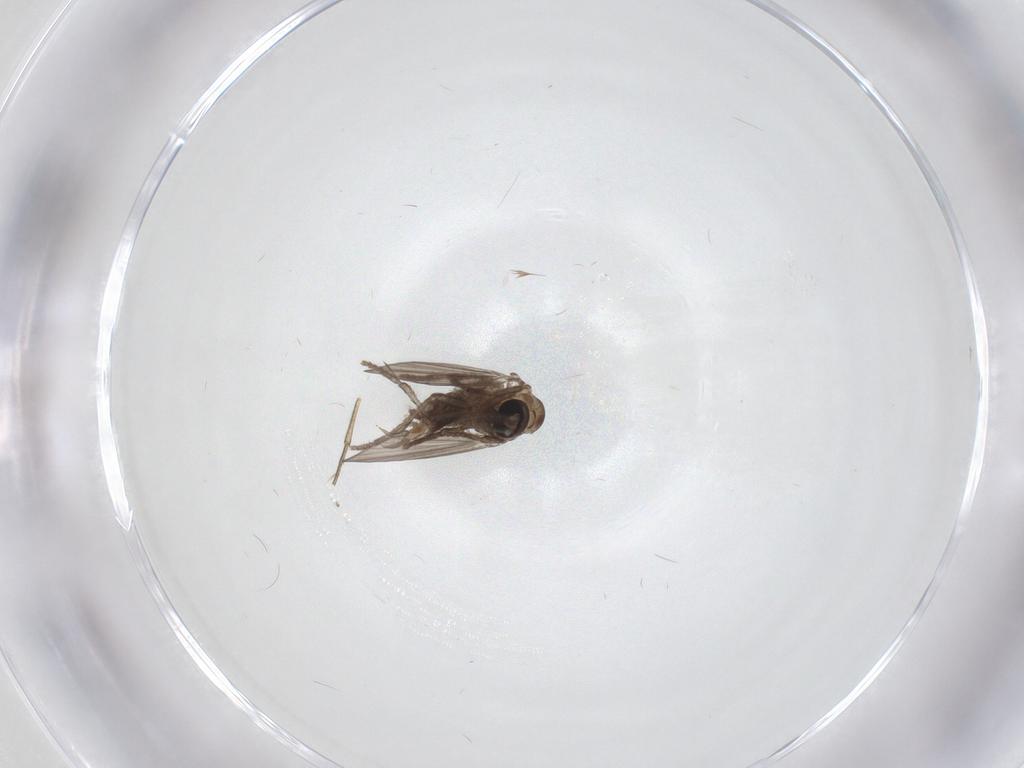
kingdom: Animalia
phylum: Arthropoda
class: Insecta
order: Diptera
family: Psychodidae
